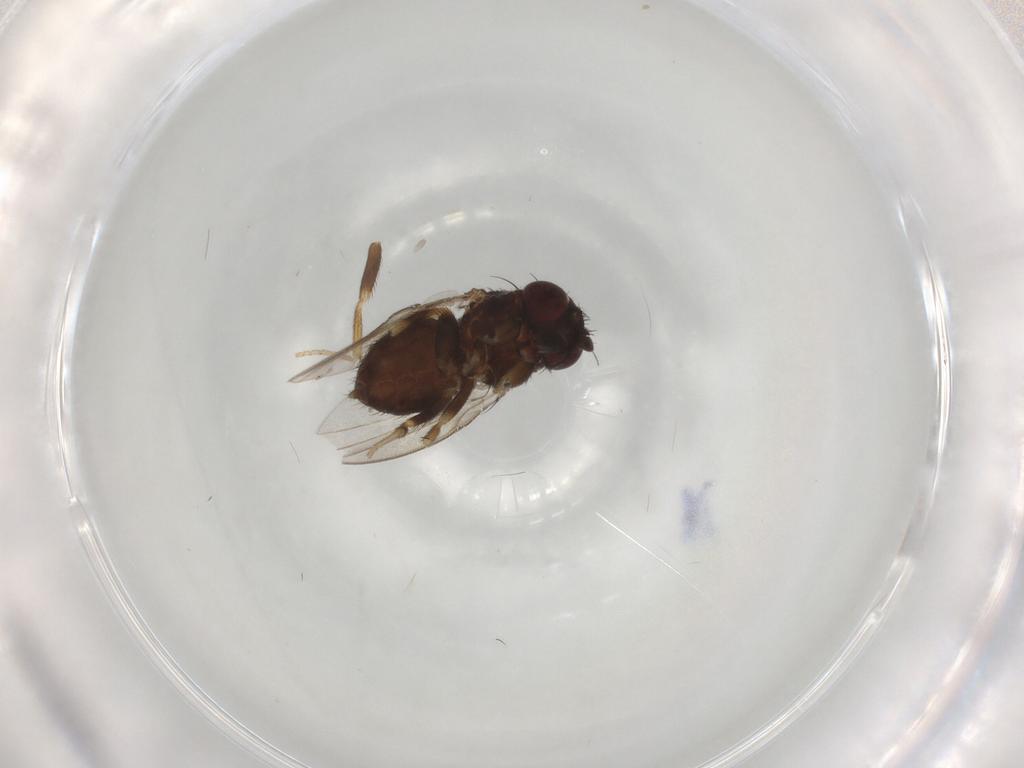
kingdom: Animalia
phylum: Arthropoda
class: Insecta
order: Diptera
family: Milichiidae
